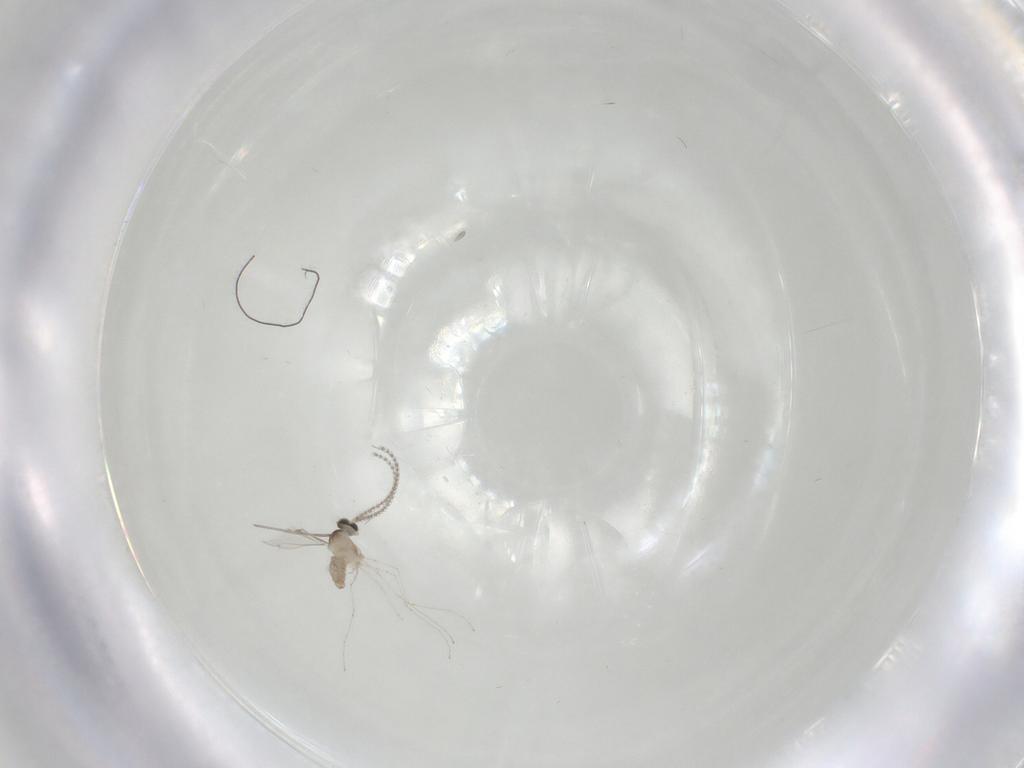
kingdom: Animalia
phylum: Arthropoda
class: Insecta
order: Diptera
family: Cecidomyiidae
